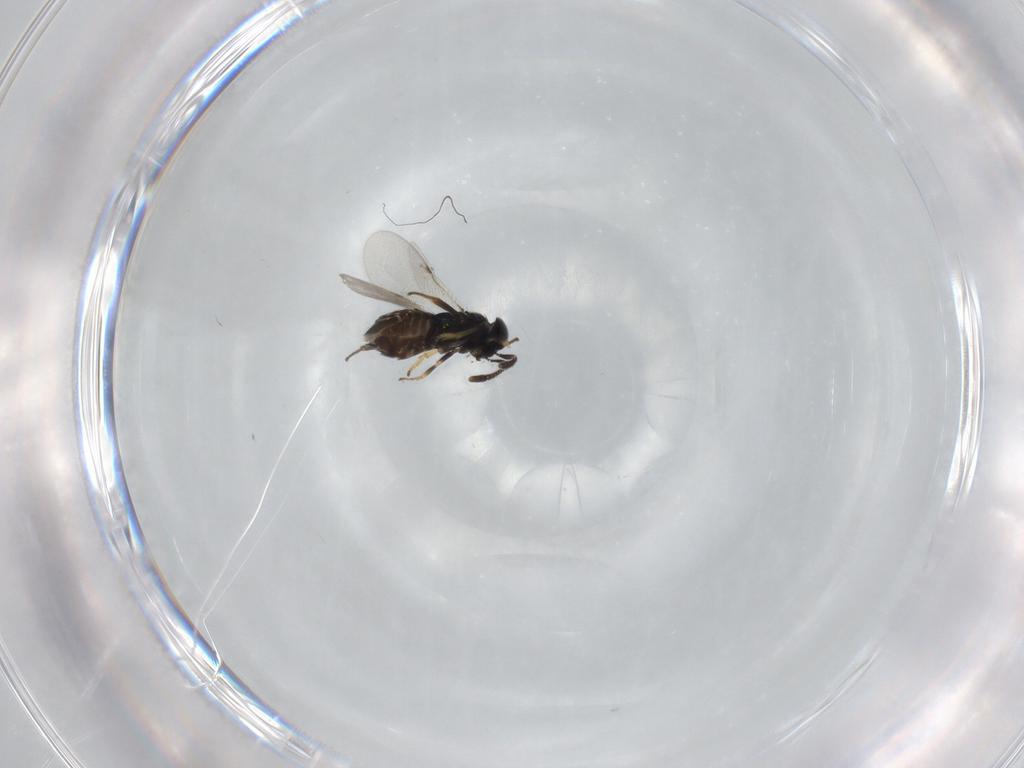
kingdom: Animalia
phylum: Arthropoda
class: Insecta
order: Hymenoptera
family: Encyrtidae
